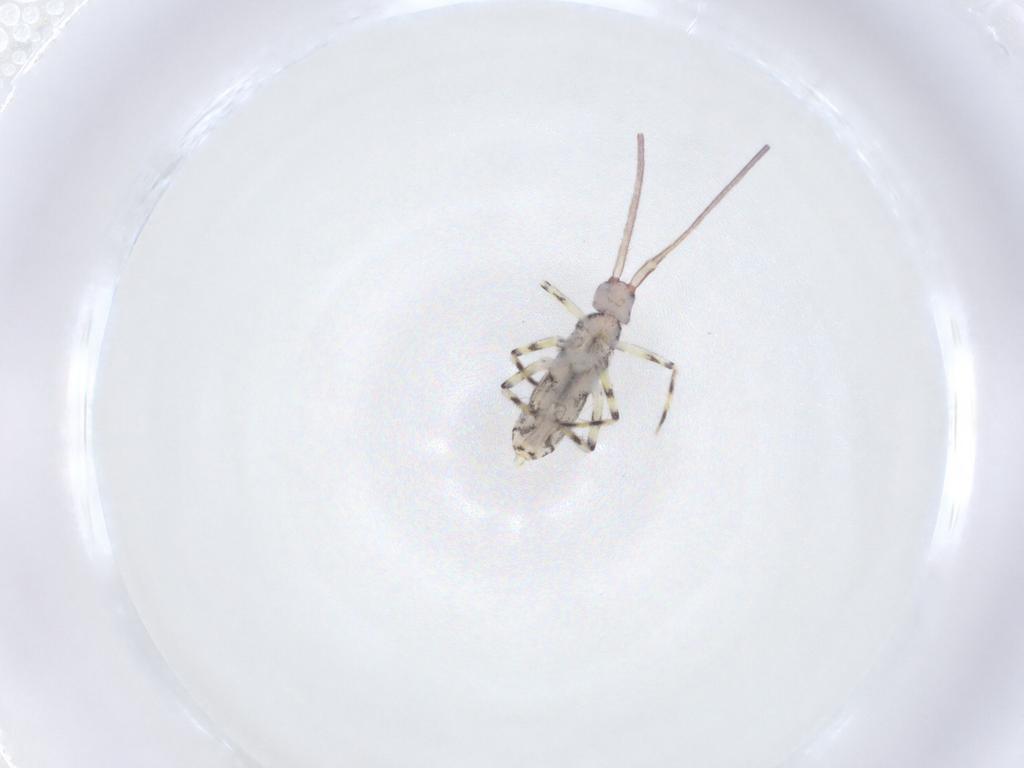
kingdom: Animalia
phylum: Arthropoda
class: Collembola
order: Entomobryomorpha
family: Entomobryidae
